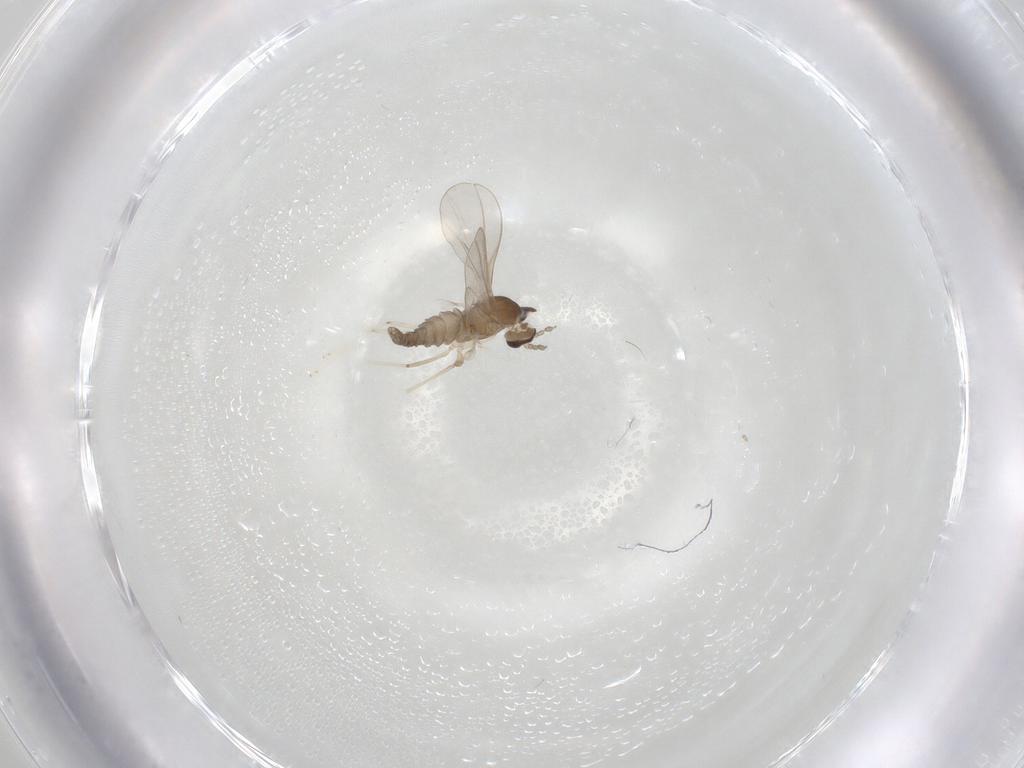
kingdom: Animalia
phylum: Arthropoda
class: Insecta
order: Diptera
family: Cecidomyiidae
